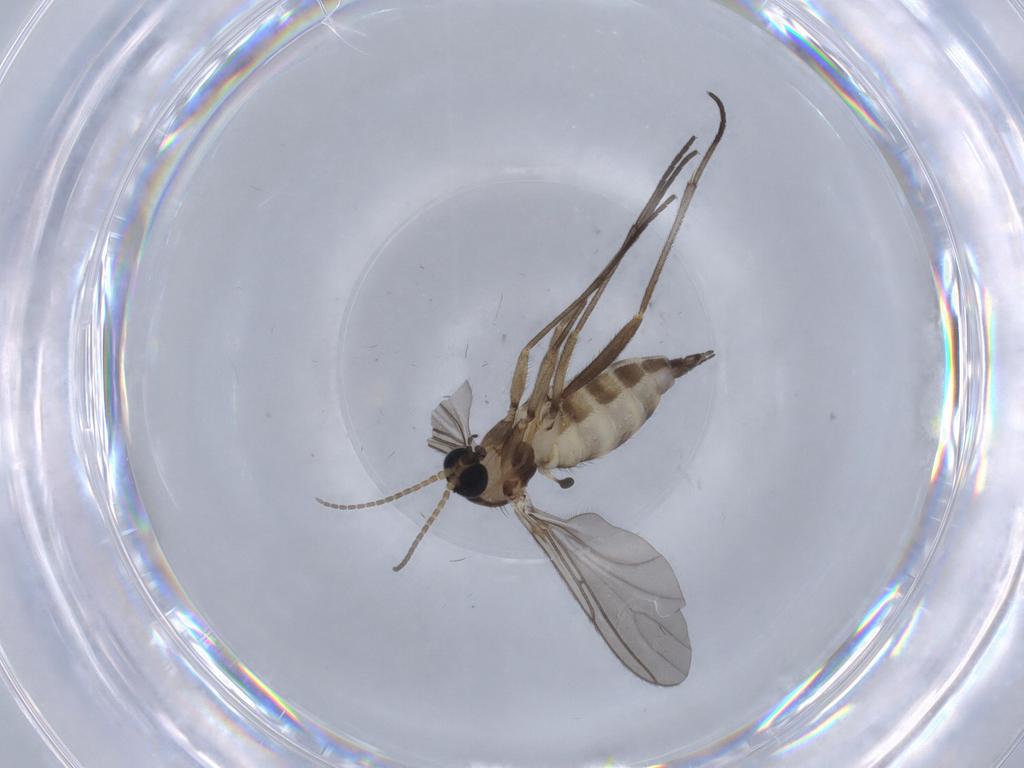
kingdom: Animalia
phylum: Arthropoda
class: Insecta
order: Diptera
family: Sciaridae
